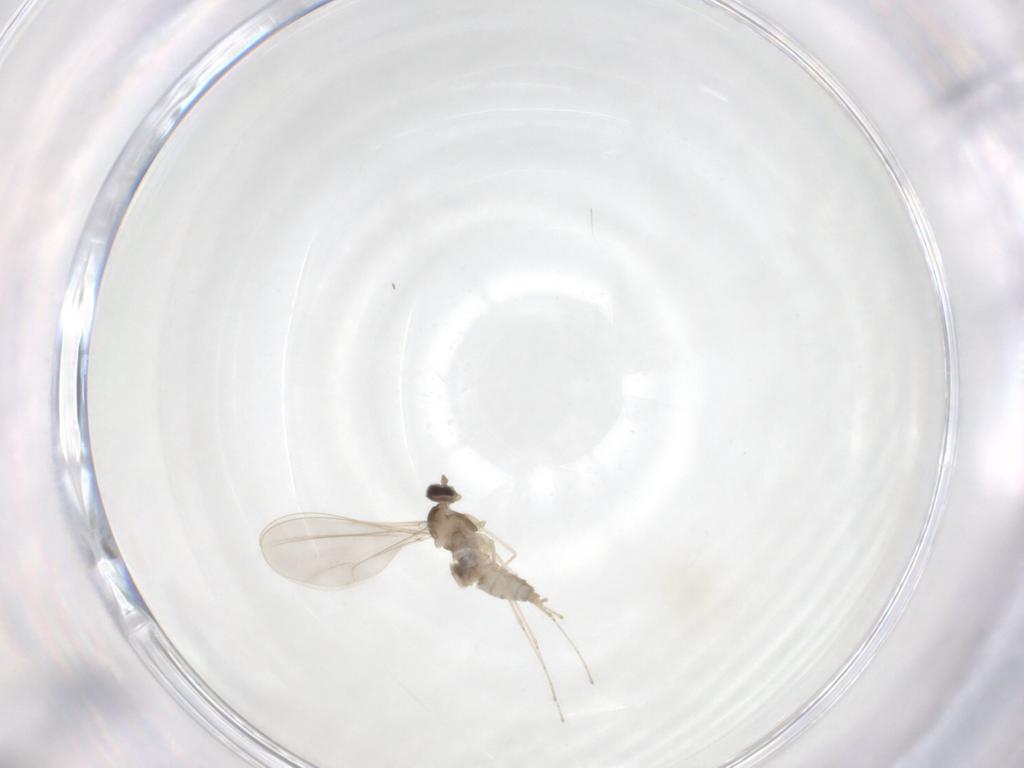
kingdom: Animalia
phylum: Arthropoda
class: Insecta
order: Diptera
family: Cecidomyiidae
